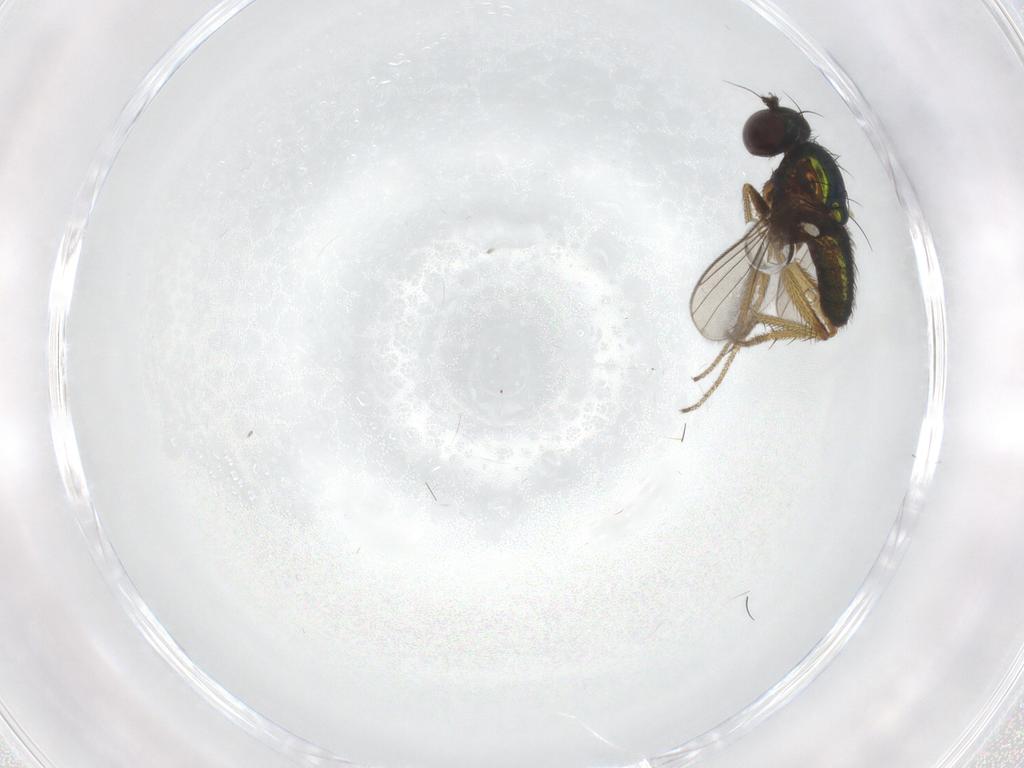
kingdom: Animalia
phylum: Arthropoda
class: Insecta
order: Diptera
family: Dolichopodidae
